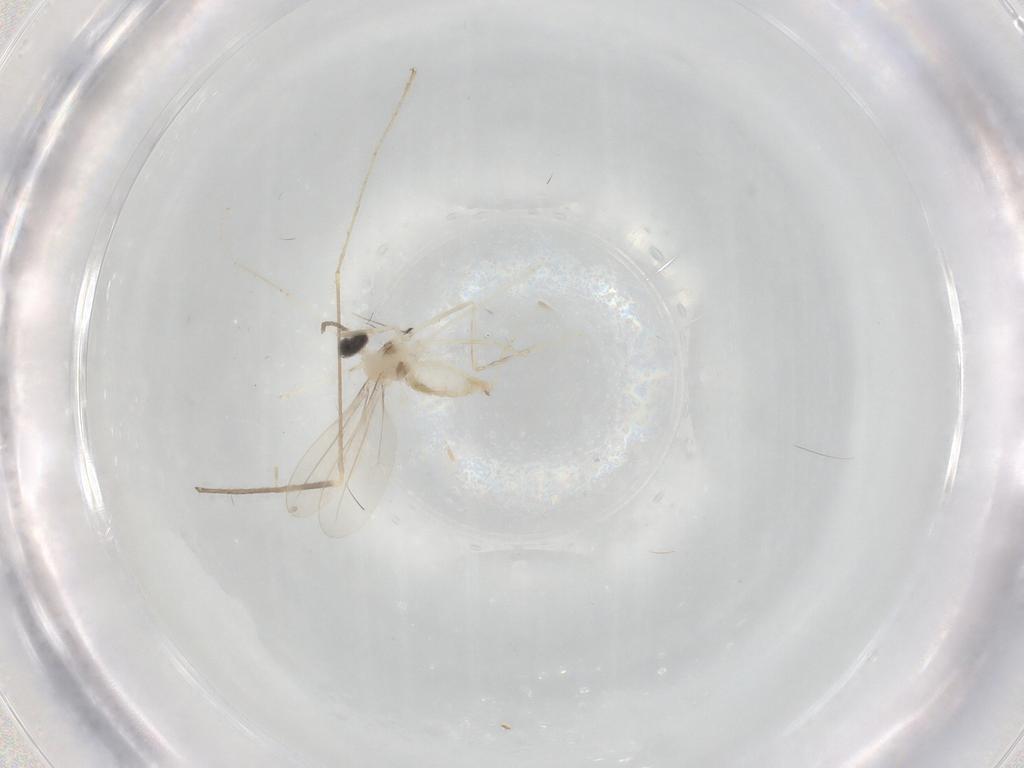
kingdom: Animalia
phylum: Arthropoda
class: Insecta
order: Diptera
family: Cecidomyiidae
